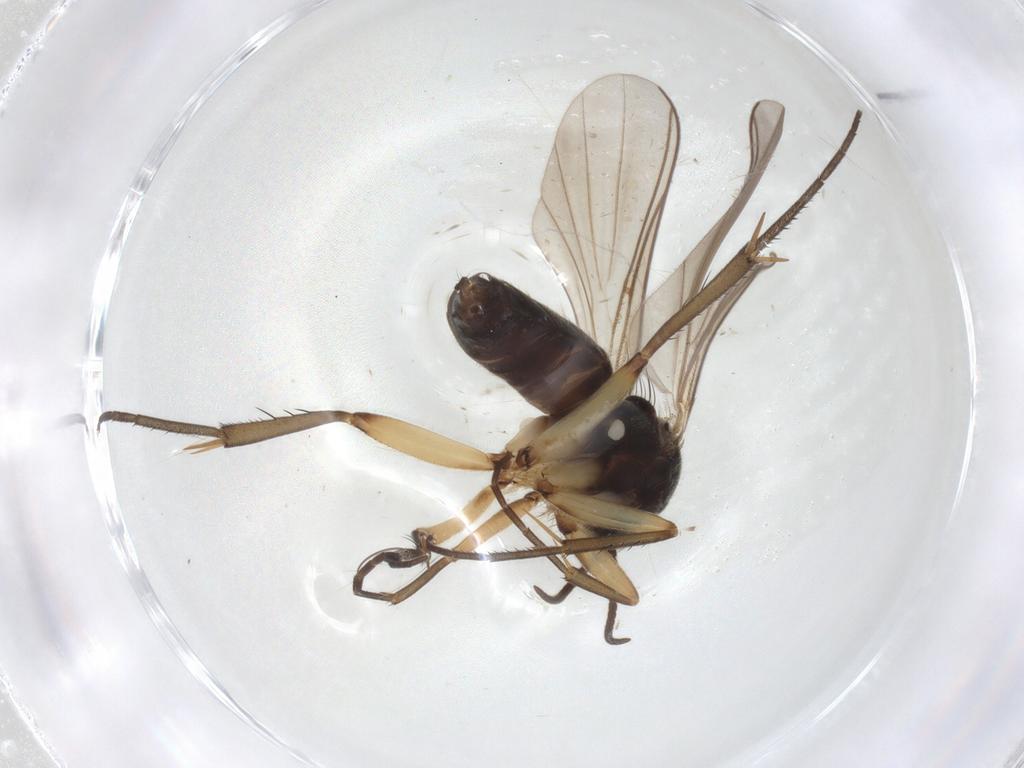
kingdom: Animalia
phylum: Arthropoda
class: Insecta
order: Diptera
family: Mycetophilidae
